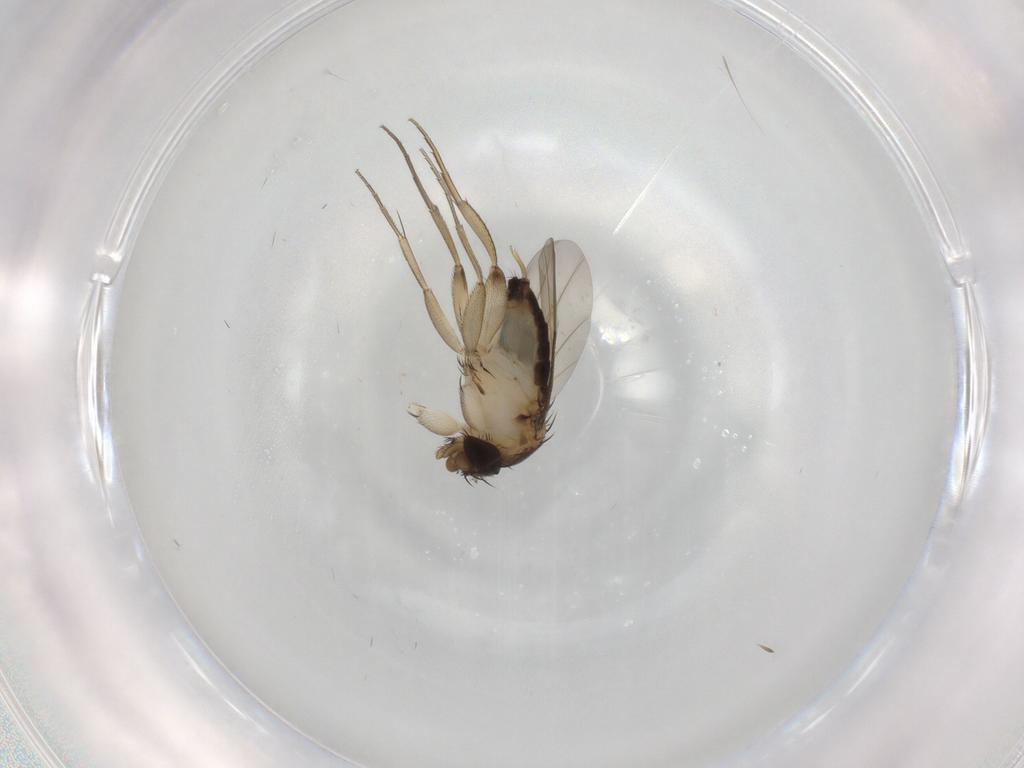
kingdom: Animalia
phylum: Arthropoda
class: Insecta
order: Diptera
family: Phoridae
